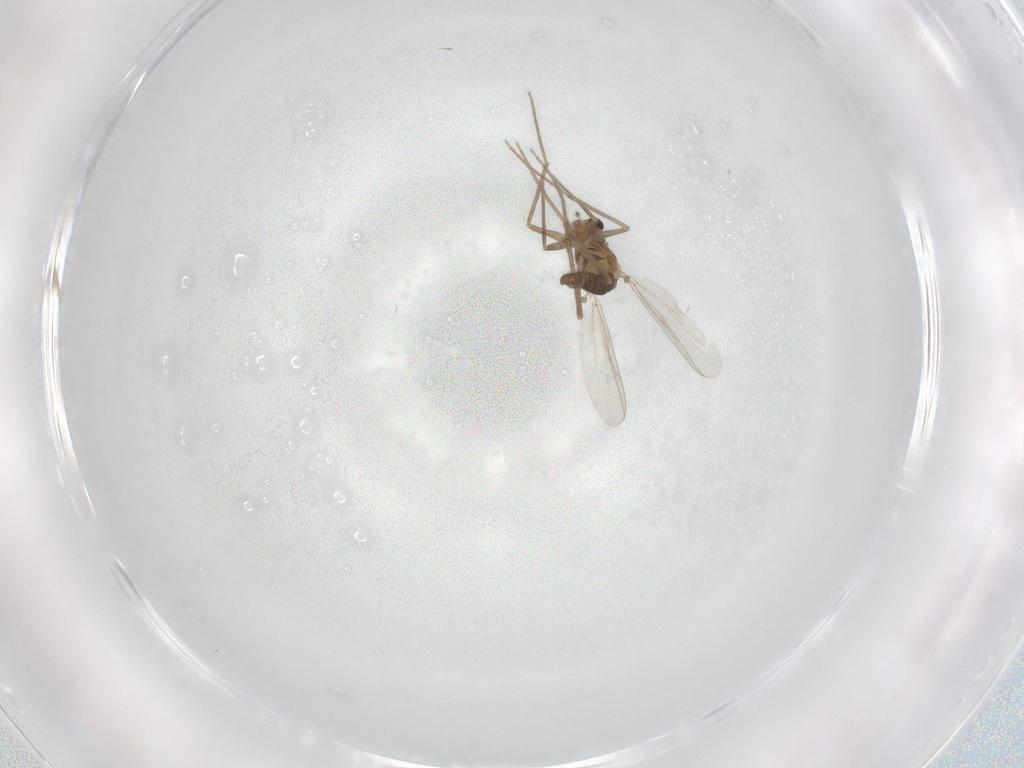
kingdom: Animalia
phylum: Arthropoda
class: Insecta
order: Diptera
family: Chironomidae
